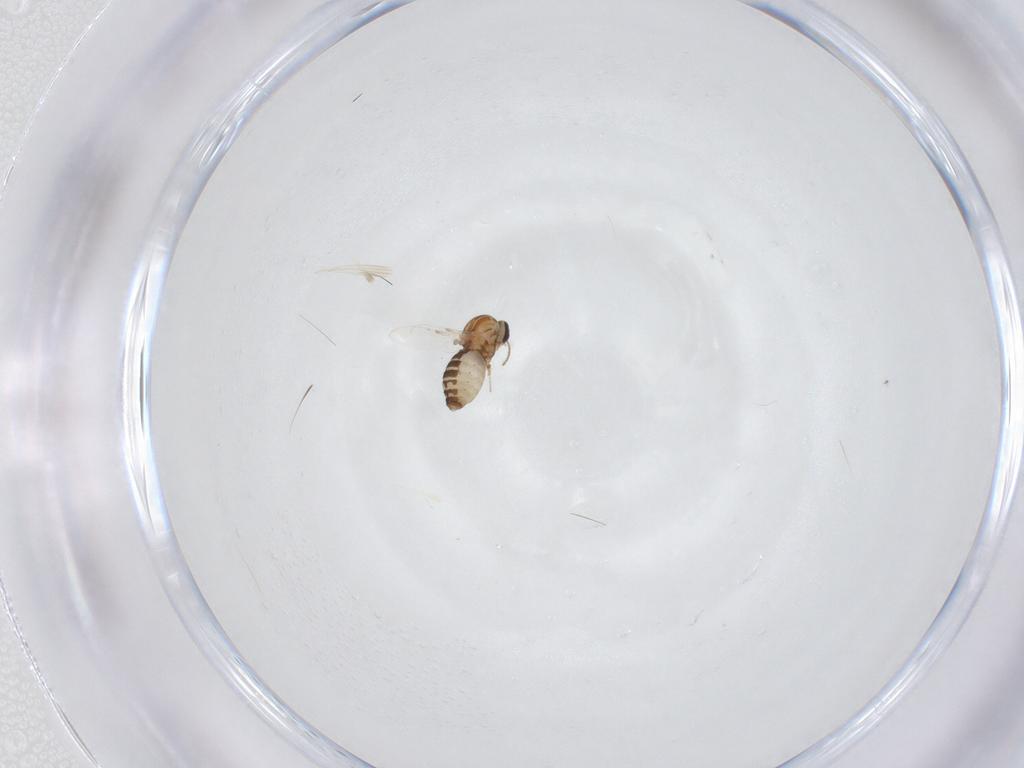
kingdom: Animalia
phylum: Arthropoda
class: Insecta
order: Diptera
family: Ceratopogonidae
